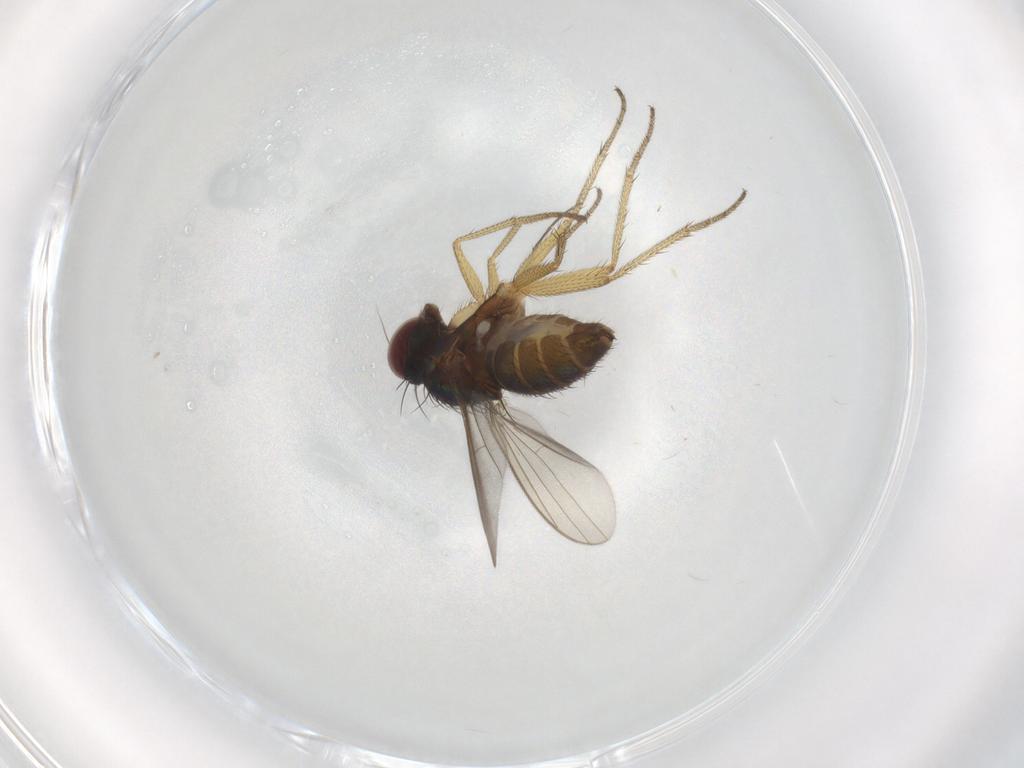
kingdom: Animalia
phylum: Arthropoda
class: Insecta
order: Diptera
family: Dolichopodidae
